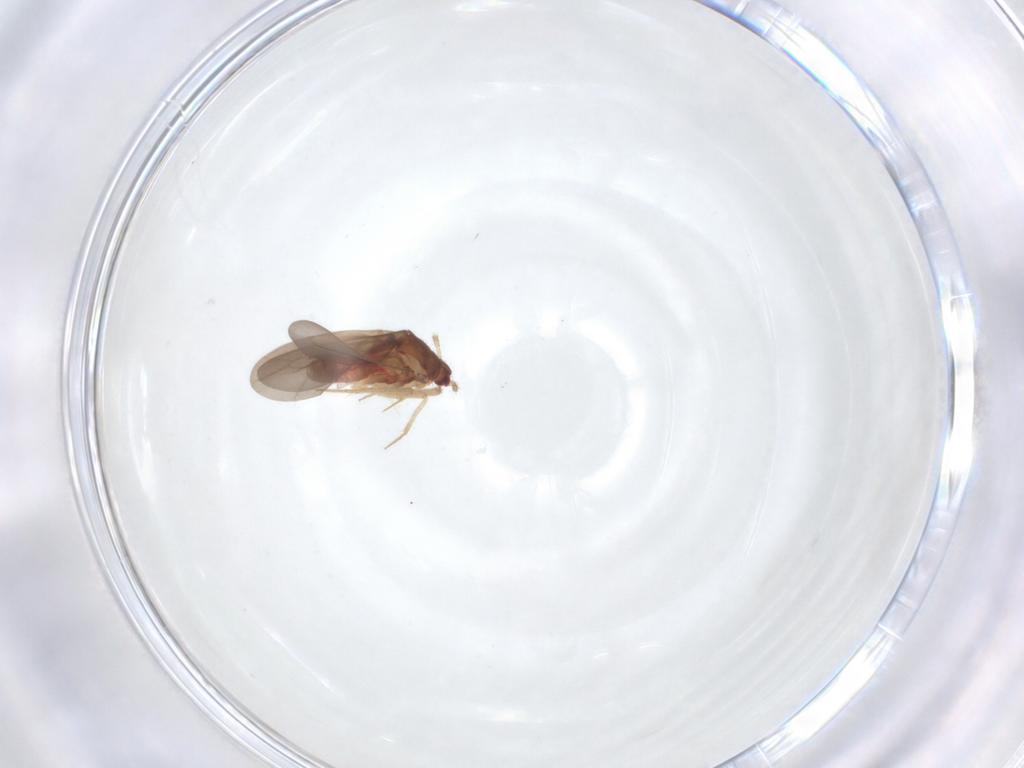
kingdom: Animalia
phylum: Arthropoda
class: Insecta
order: Hemiptera
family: Ceratocombidae
